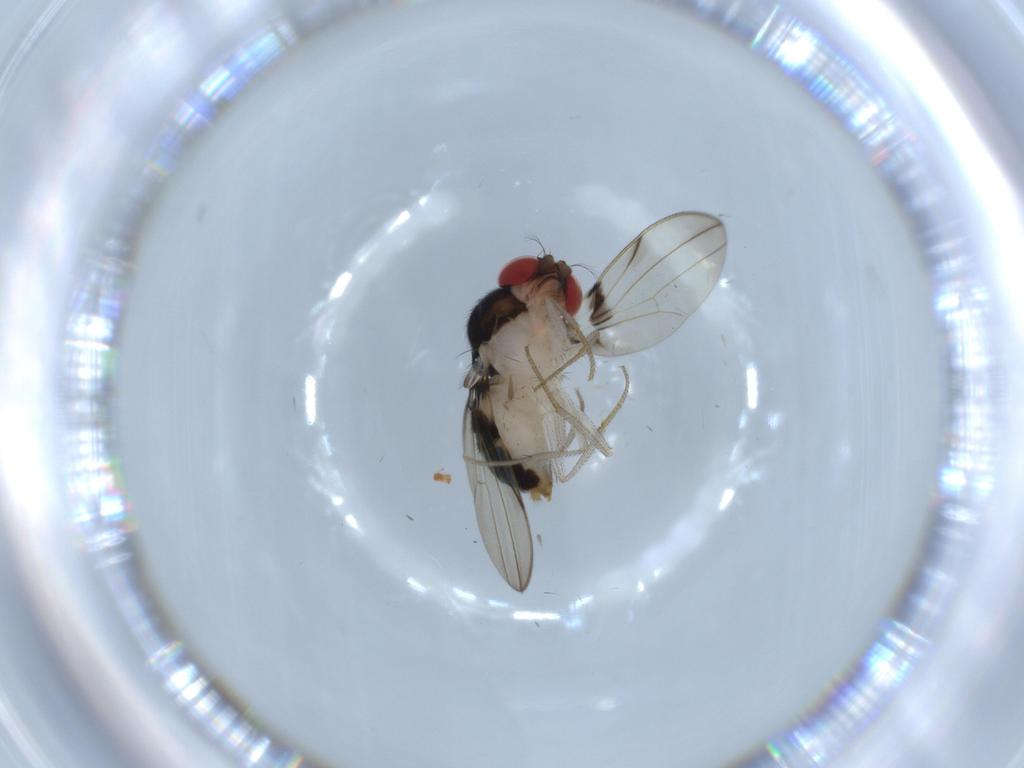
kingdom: Animalia
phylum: Arthropoda
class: Insecta
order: Diptera
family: Drosophilidae
